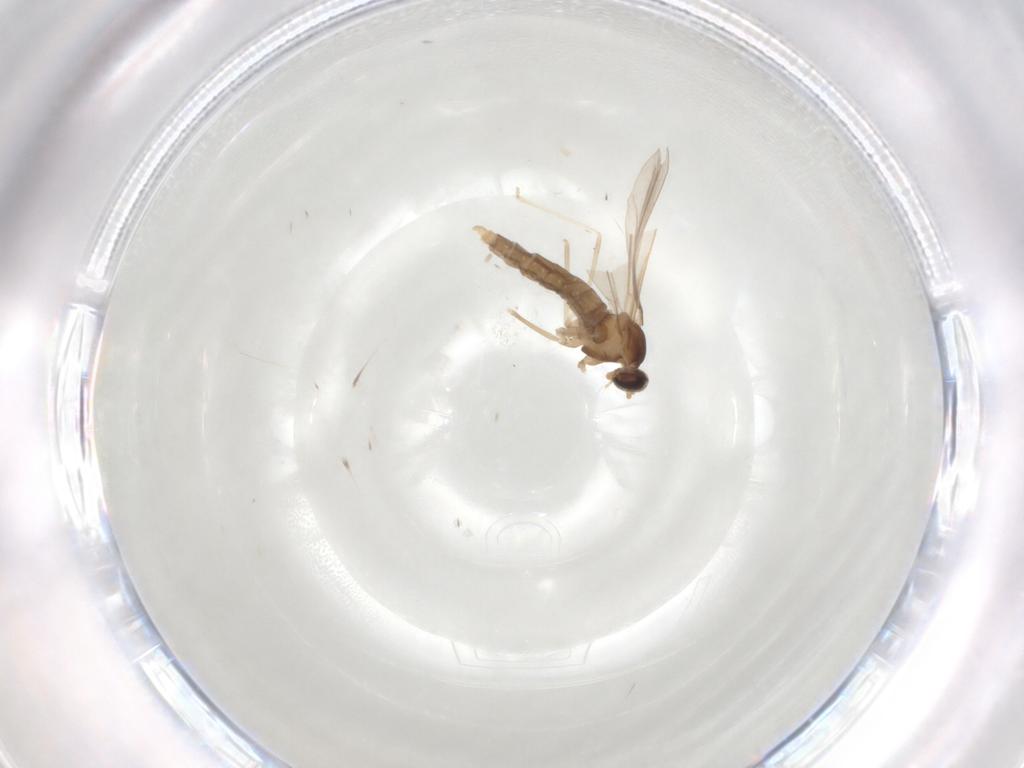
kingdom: Animalia
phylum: Arthropoda
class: Insecta
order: Diptera
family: Cecidomyiidae
